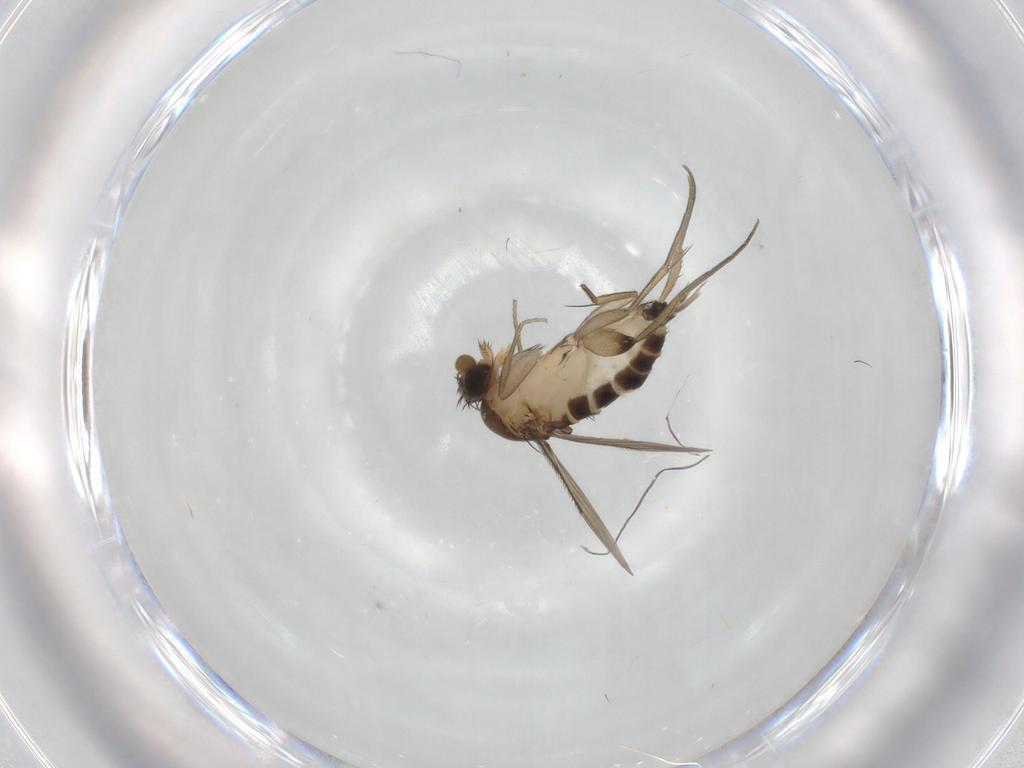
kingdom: Animalia
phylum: Arthropoda
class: Insecta
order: Diptera
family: Phoridae
